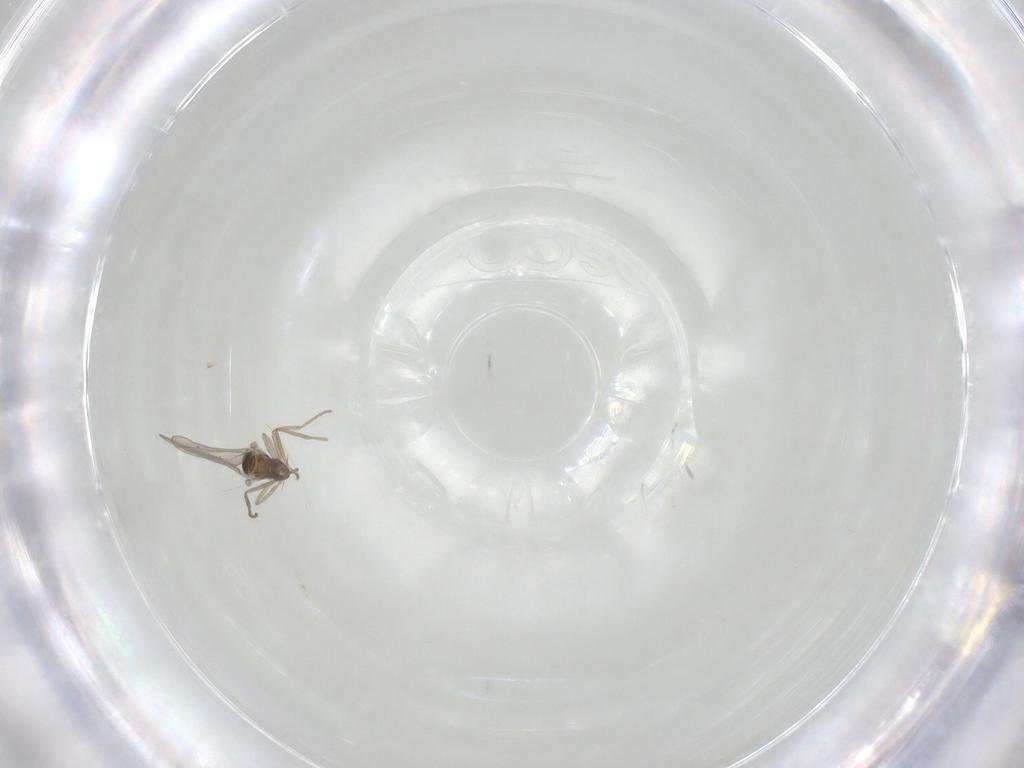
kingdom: Animalia
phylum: Arthropoda
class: Insecta
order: Diptera
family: Cecidomyiidae
